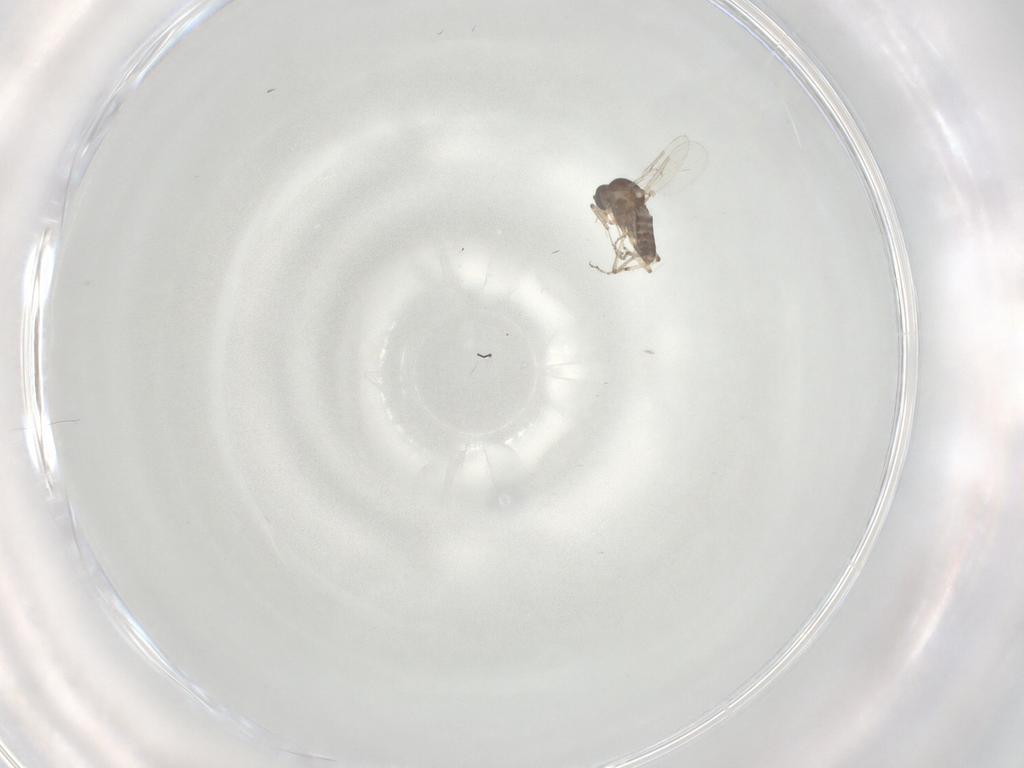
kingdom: Animalia
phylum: Arthropoda
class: Insecta
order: Diptera
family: Ceratopogonidae
